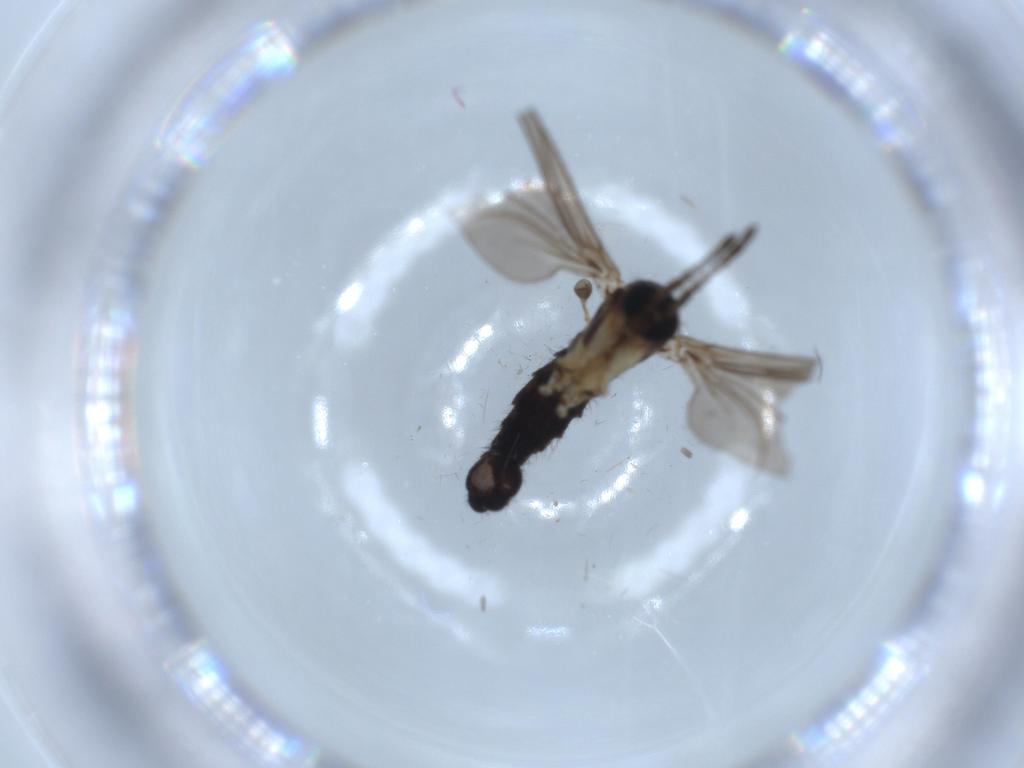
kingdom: Animalia
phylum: Arthropoda
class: Insecta
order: Diptera
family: Sciaridae
